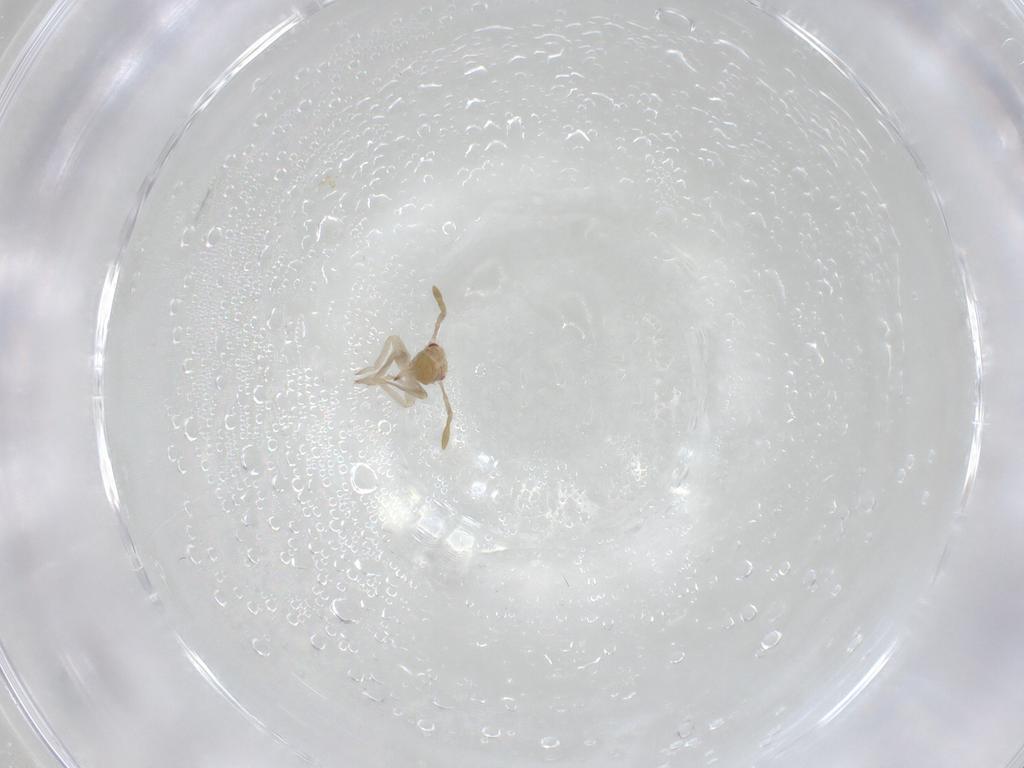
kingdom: Animalia
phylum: Arthropoda
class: Insecta
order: Hemiptera
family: Miridae
